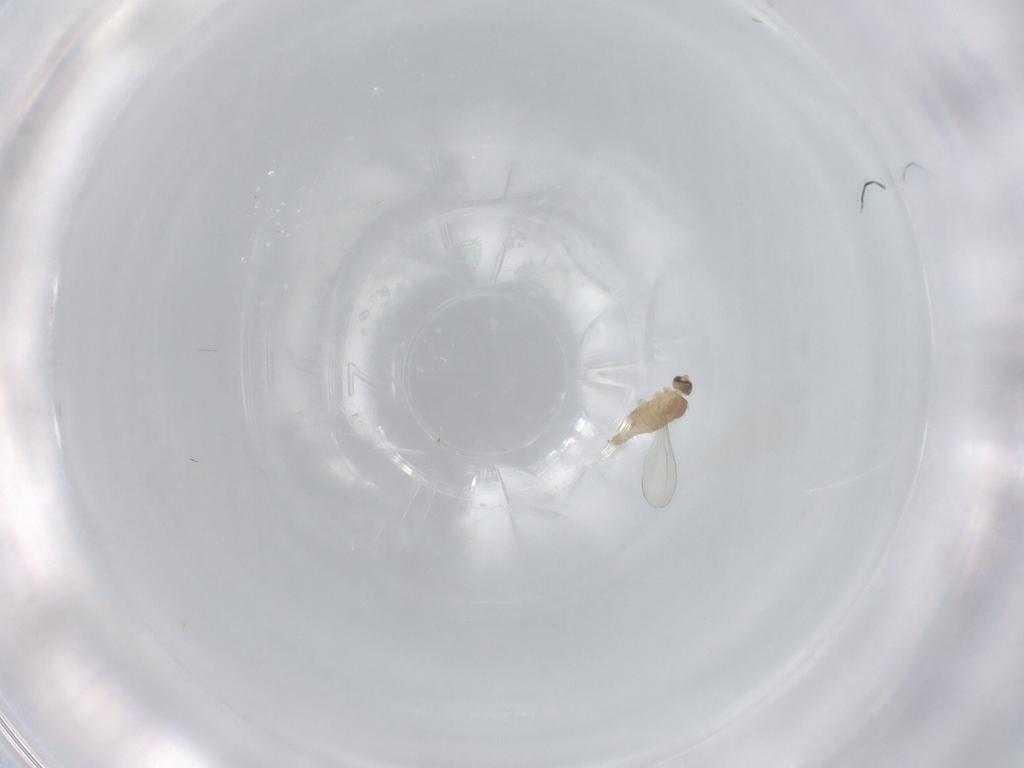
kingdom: Animalia
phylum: Arthropoda
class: Insecta
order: Diptera
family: Cecidomyiidae
